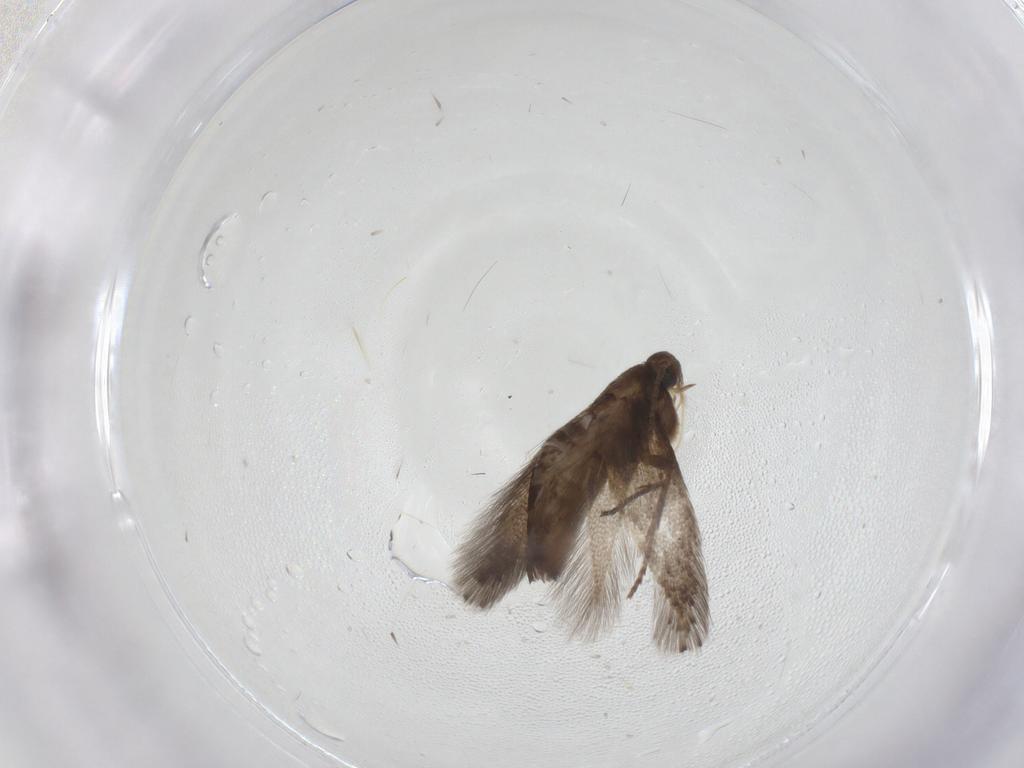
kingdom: Animalia
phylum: Arthropoda
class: Insecta
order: Lepidoptera
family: Heliozelidae
